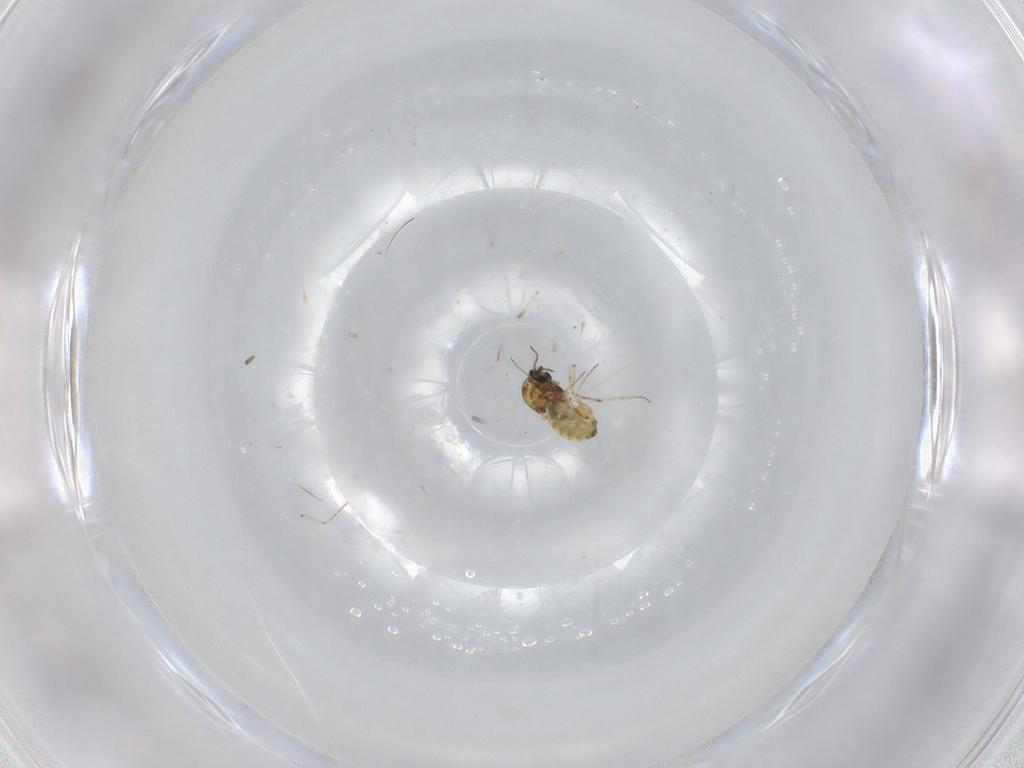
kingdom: Animalia
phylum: Arthropoda
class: Insecta
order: Diptera
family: Ceratopogonidae
